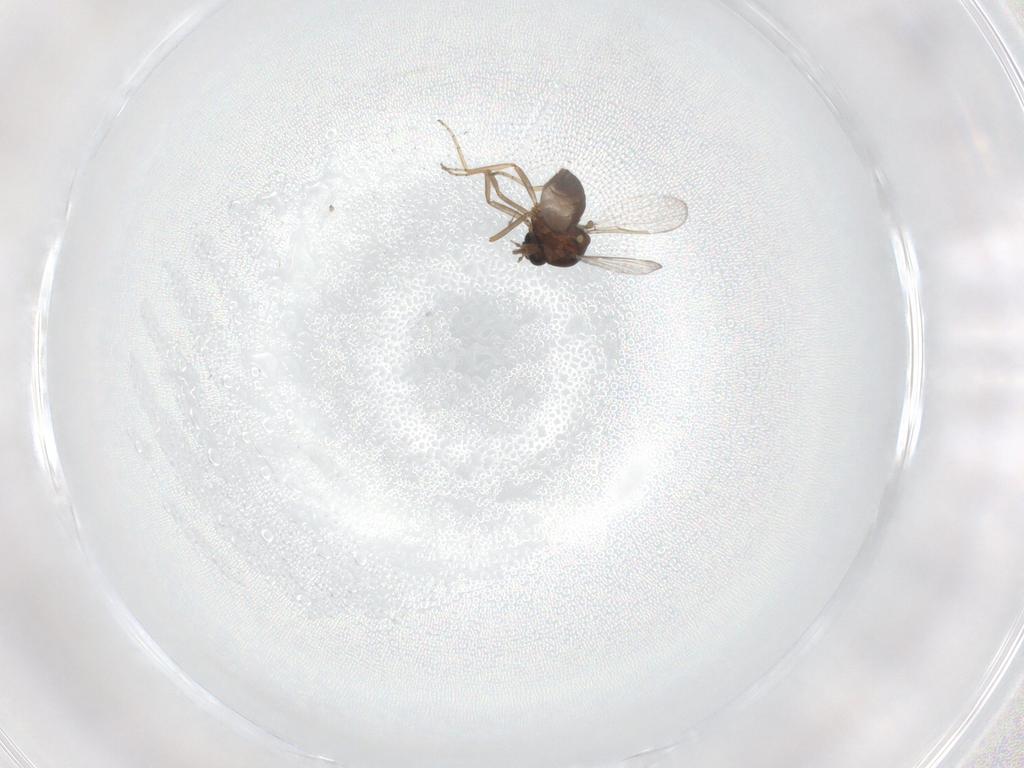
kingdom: Animalia
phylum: Arthropoda
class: Insecta
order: Diptera
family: Ceratopogonidae
